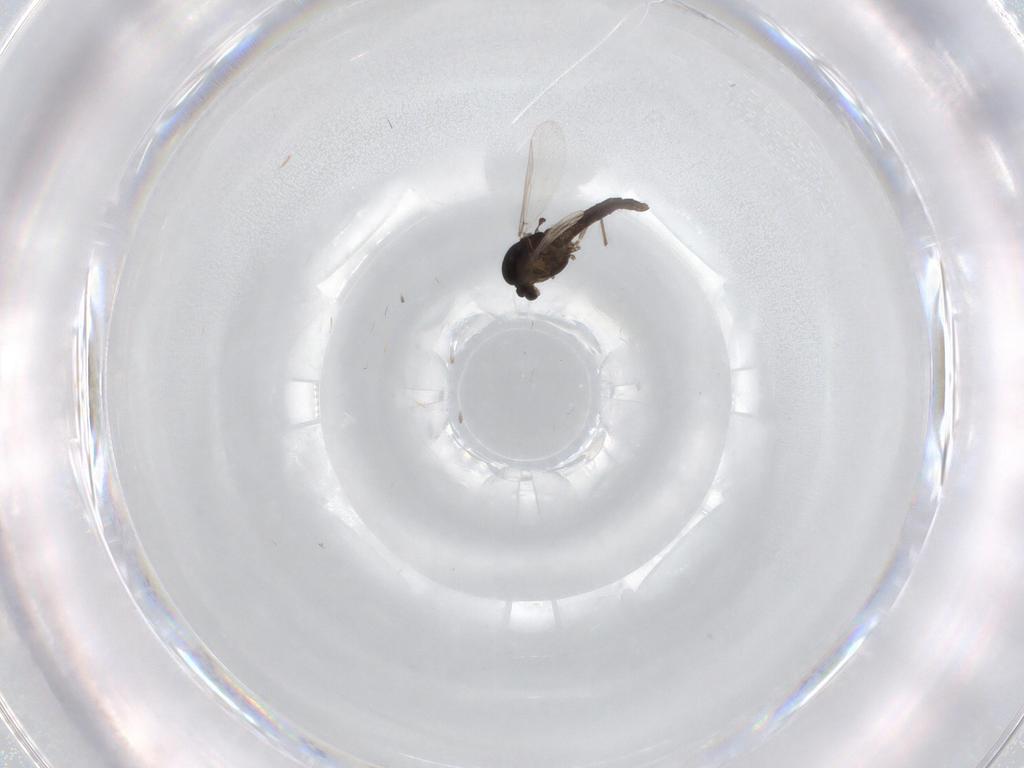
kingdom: Animalia
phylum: Arthropoda
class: Insecta
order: Diptera
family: Chironomidae
